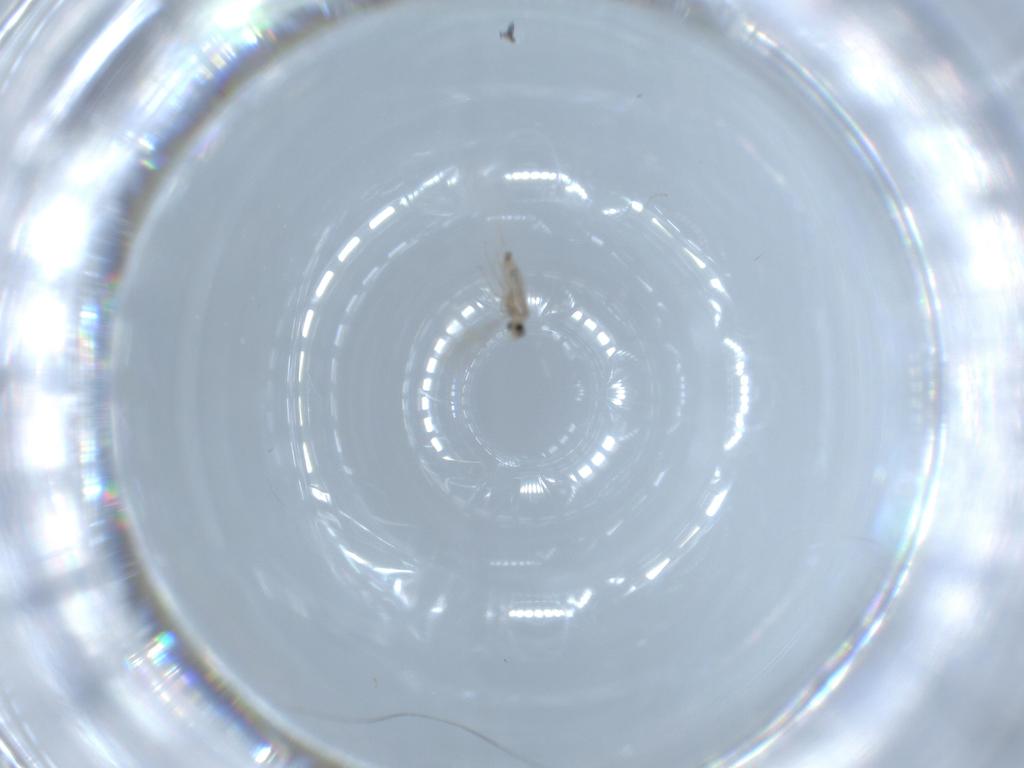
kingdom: Animalia
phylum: Arthropoda
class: Insecta
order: Diptera
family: Cecidomyiidae
